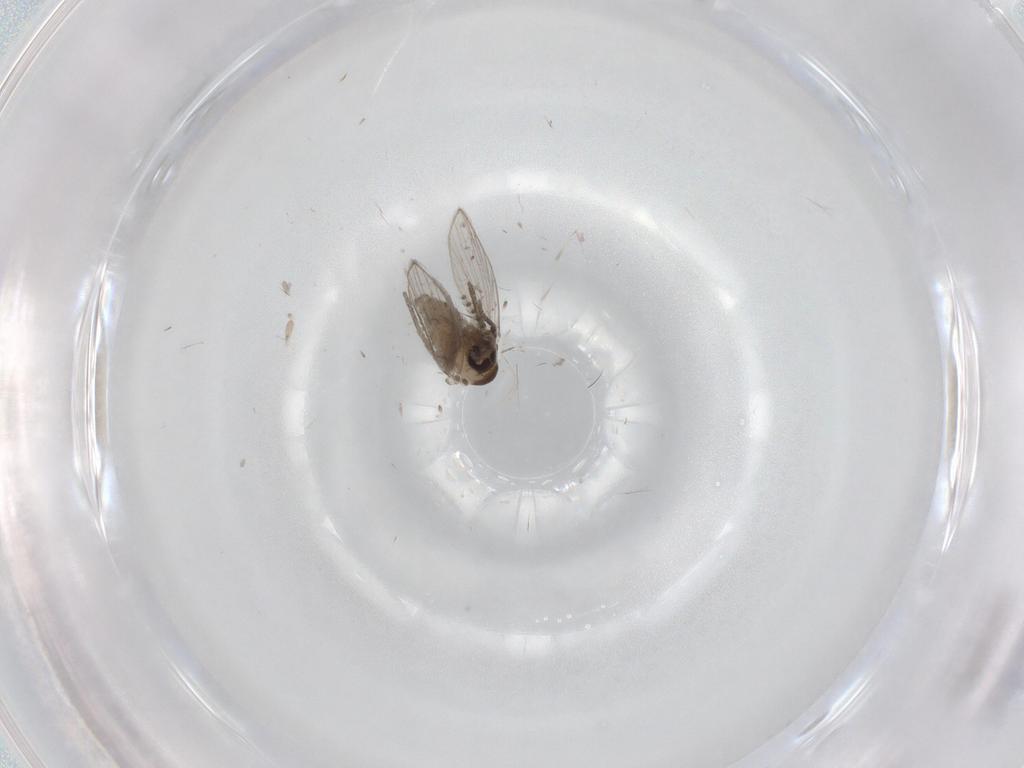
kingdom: Animalia
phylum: Arthropoda
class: Insecta
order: Diptera
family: Psychodidae
